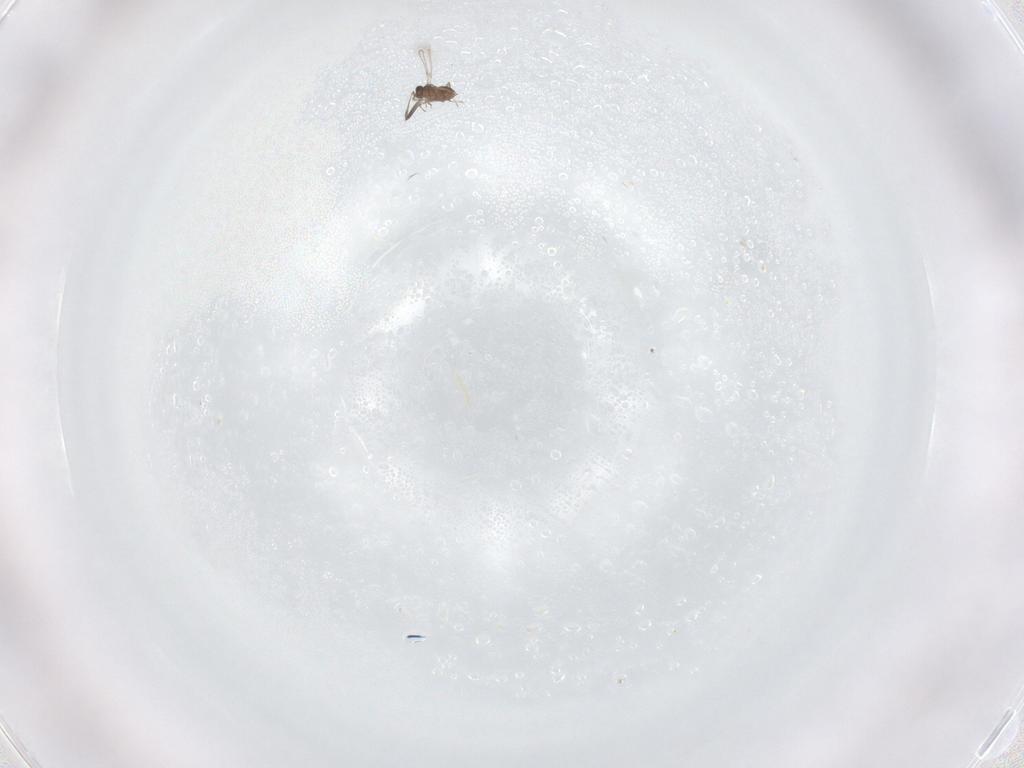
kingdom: Animalia
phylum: Arthropoda
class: Insecta
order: Hymenoptera
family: Mymaridae
